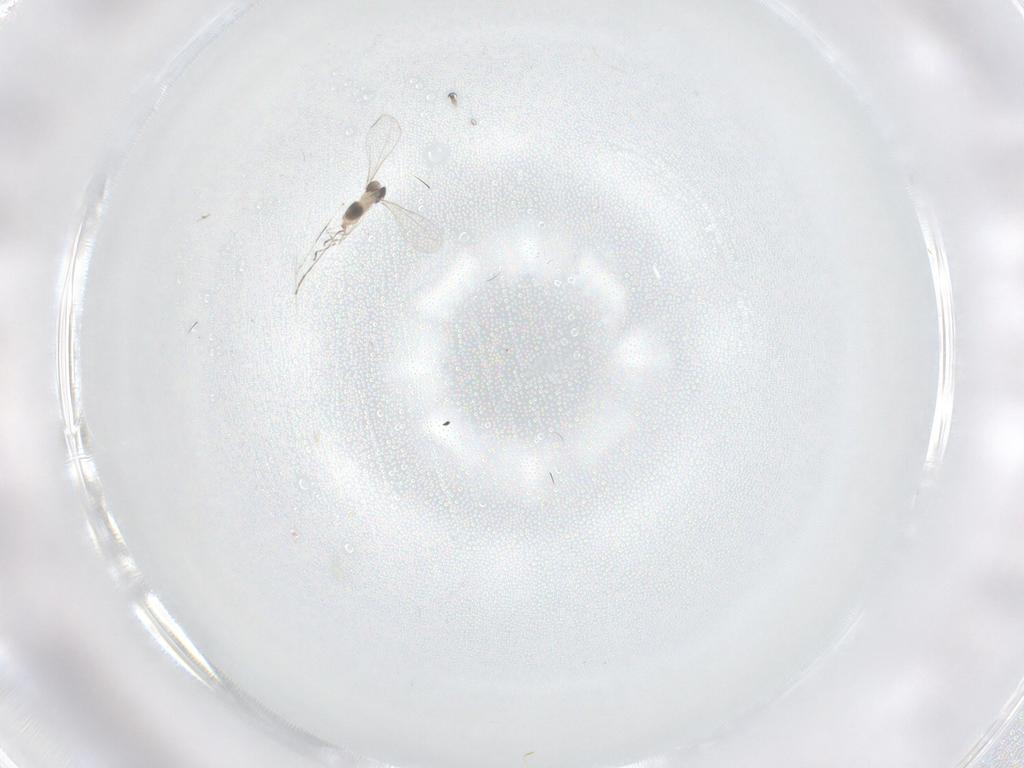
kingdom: Animalia
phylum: Arthropoda
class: Insecta
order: Diptera
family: Cecidomyiidae
